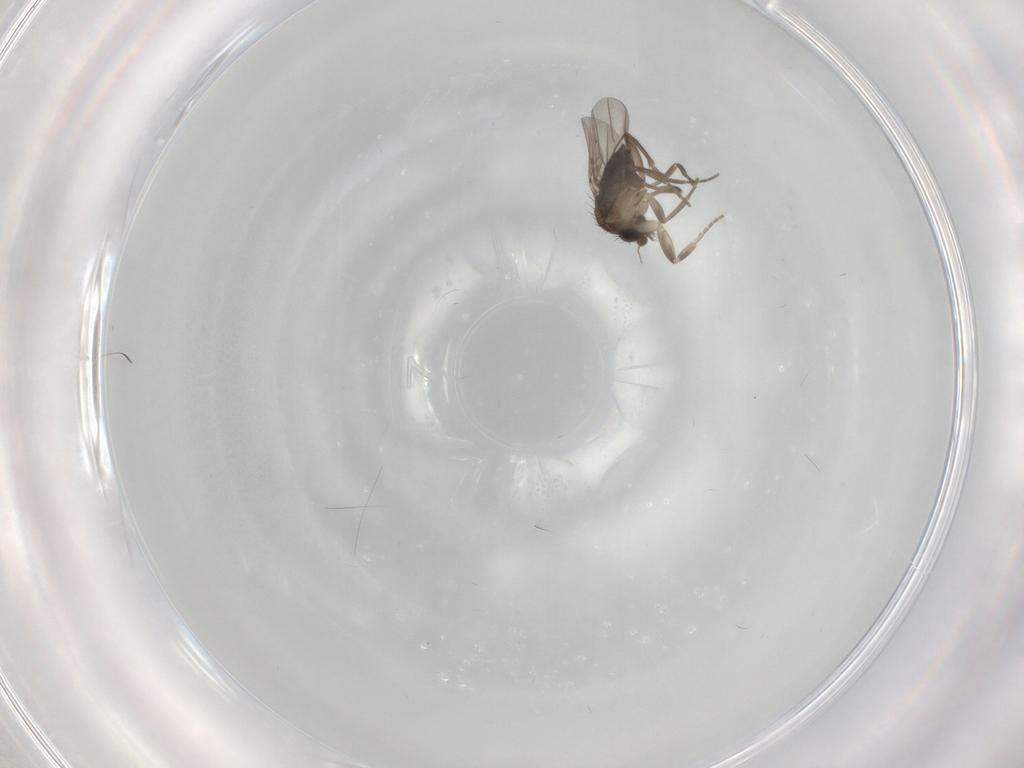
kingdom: Animalia
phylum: Arthropoda
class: Insecta
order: Diptera
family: Phoridae
